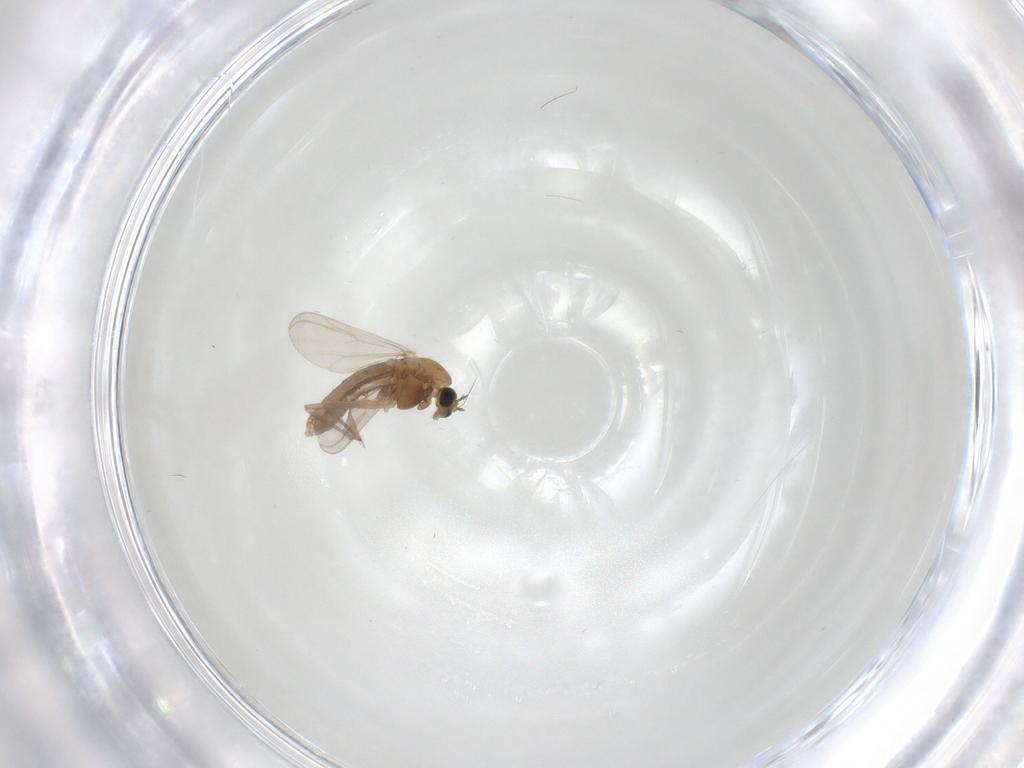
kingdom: Animalia
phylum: Arthropoda
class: Insecta
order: Diptera
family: Chironomidae
